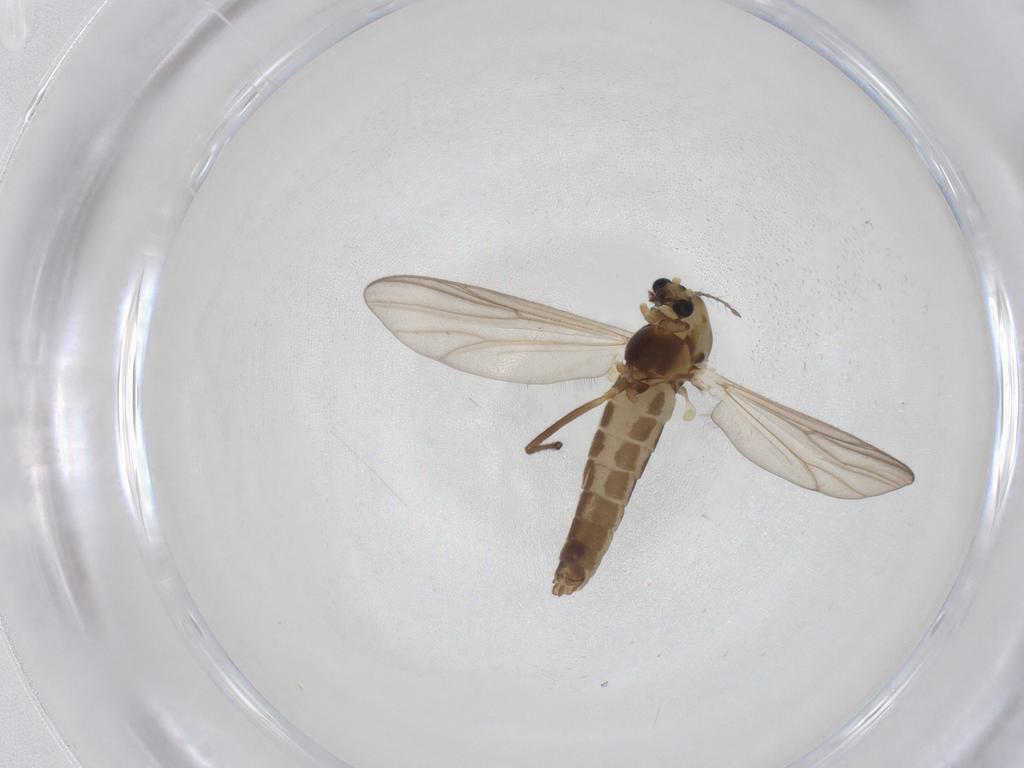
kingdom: Animalia
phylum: Arthropoda
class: Insecta
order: Diptera
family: Chironomidae
